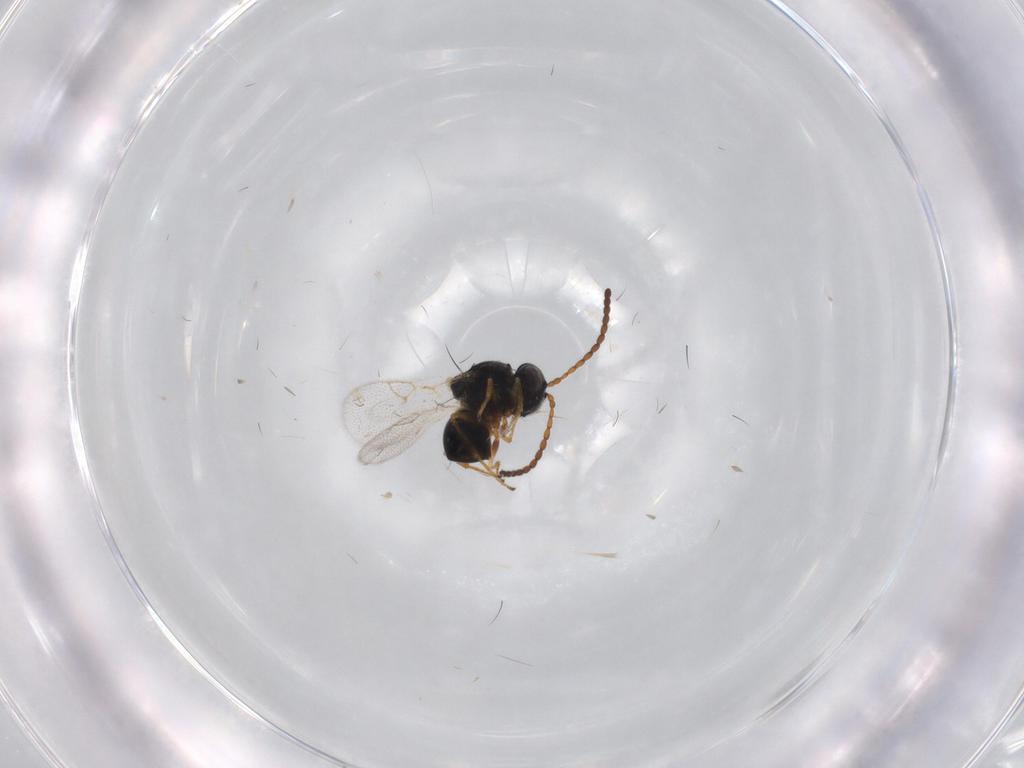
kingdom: Animalia
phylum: Arthropoda
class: Insecta
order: Hymenoptera
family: Figitidae
